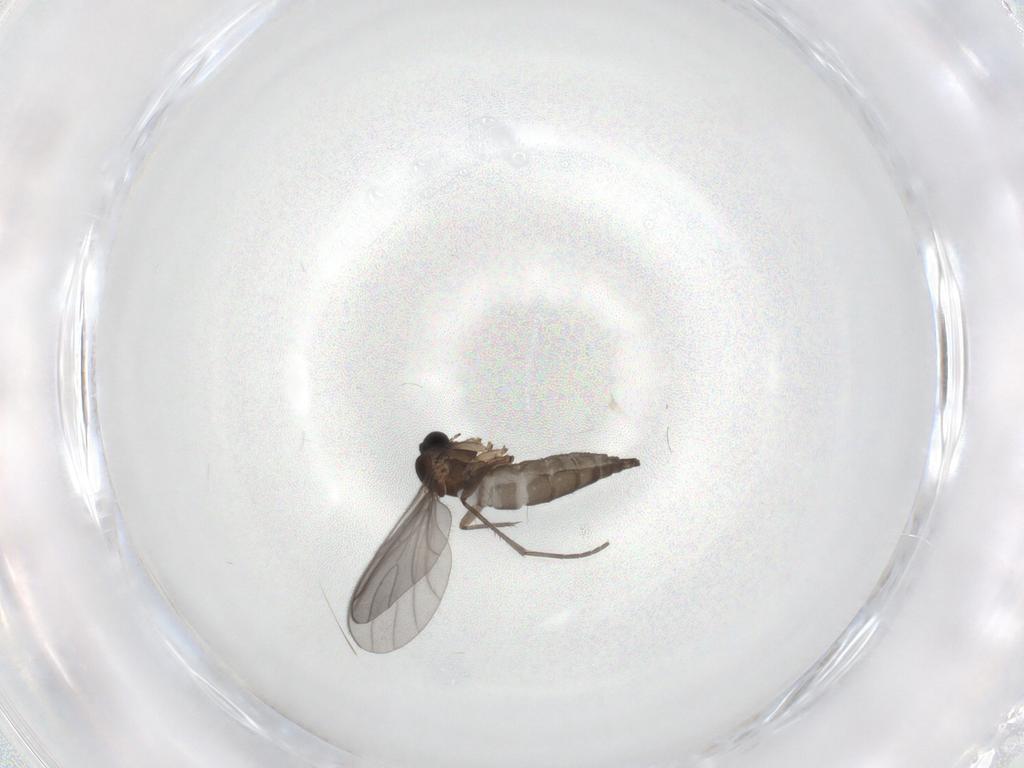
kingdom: Animalia
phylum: Arthropoda
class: Insecta
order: Diptera
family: Sciaridae
